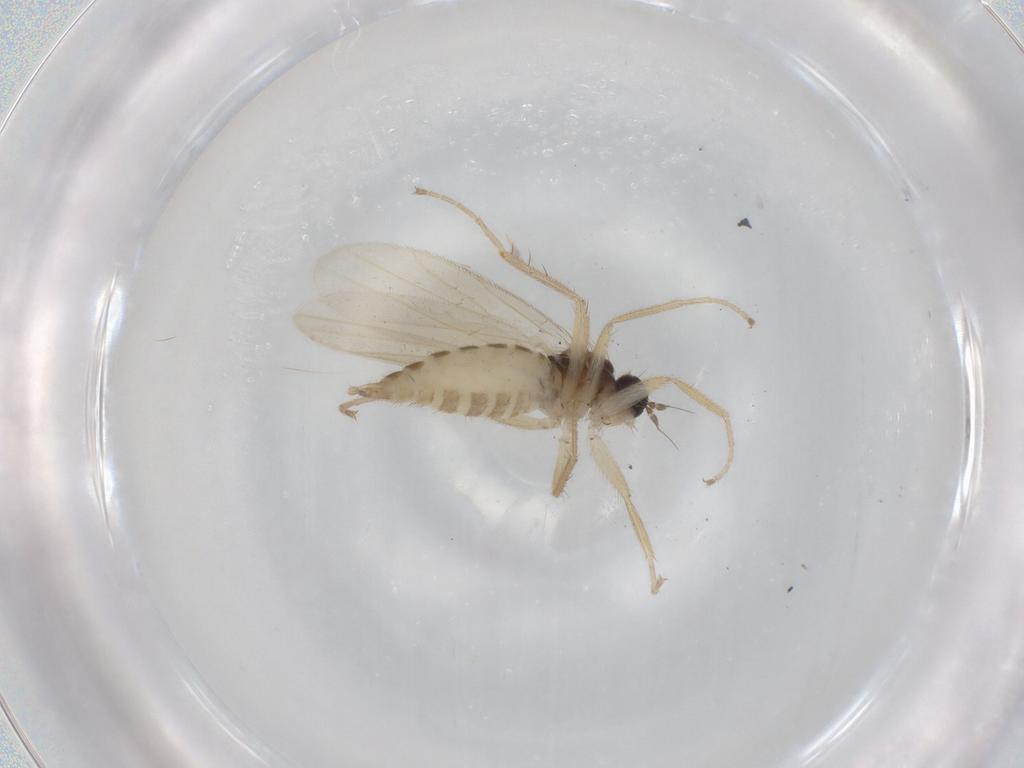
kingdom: Animalia
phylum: Arthropoda
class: Insecta
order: Diptera
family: Hybotidae
